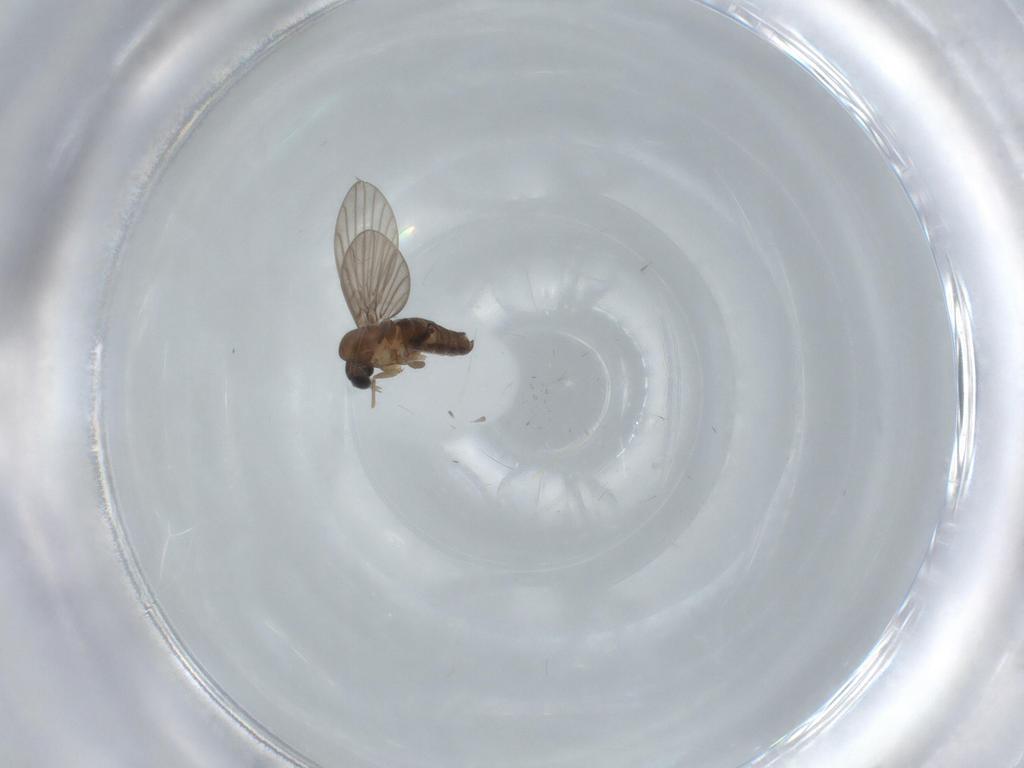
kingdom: Animalia
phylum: Arthropoda
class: Insecta
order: Diptera
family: Psychodidae
